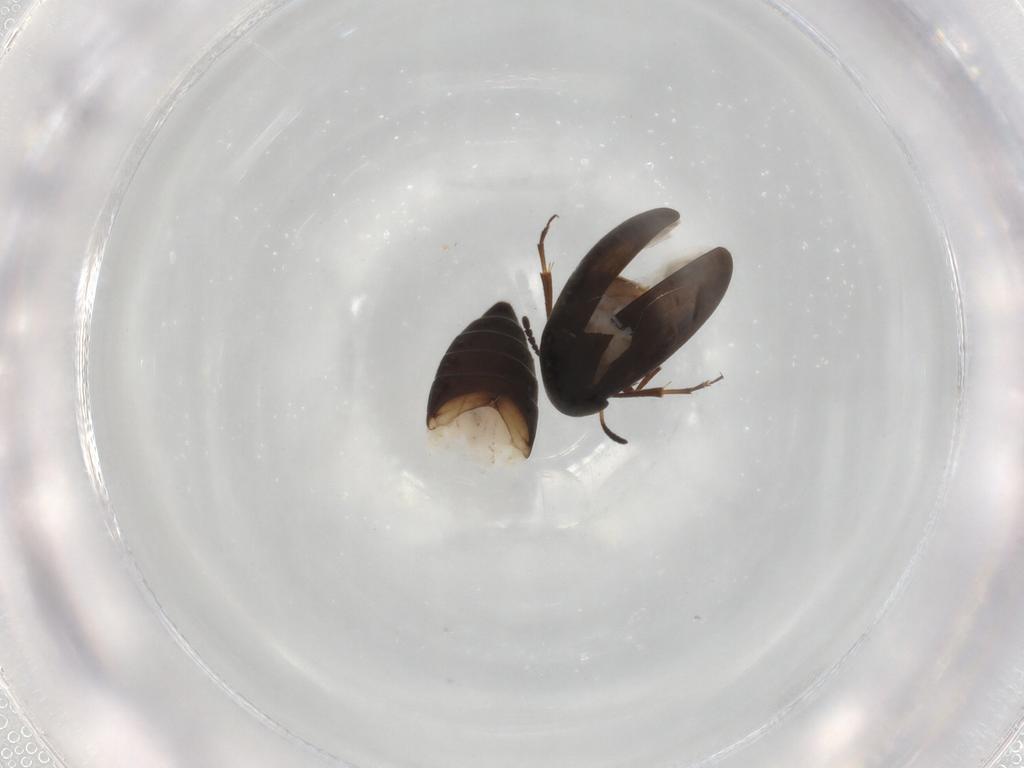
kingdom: Animalia
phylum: Arthropoda
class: Insecta
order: Coleoptera
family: Scraptiidae
